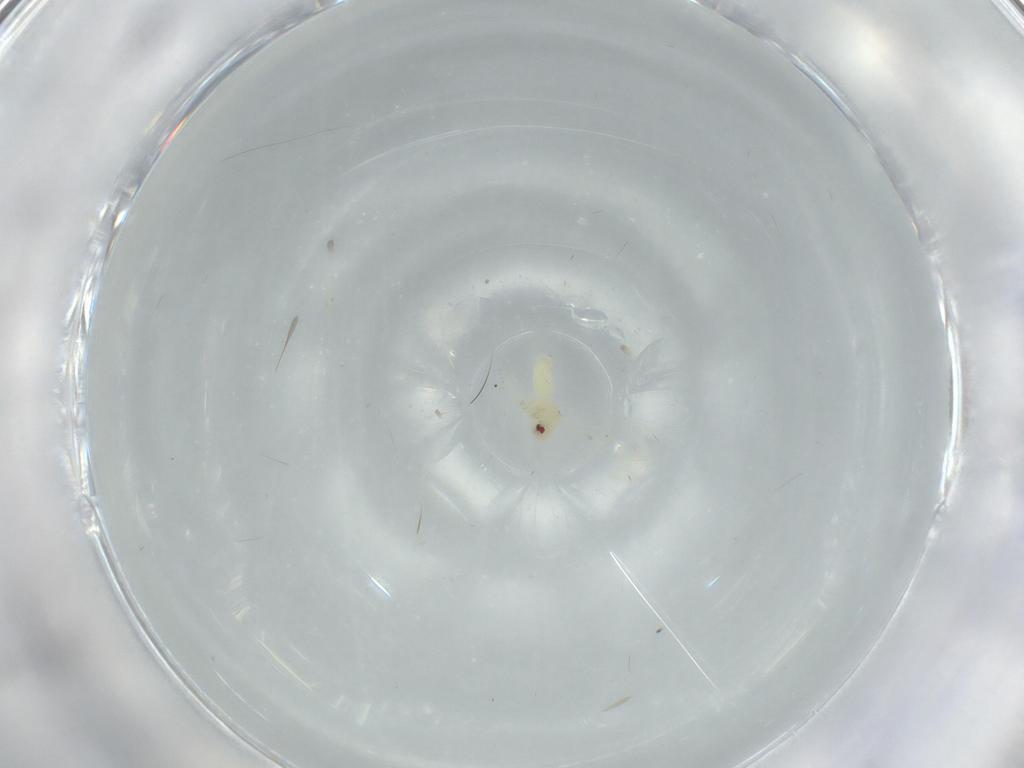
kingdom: Animalia
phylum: Arthropoda
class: Insecta
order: Hemiptera
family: Aleyrodidae
